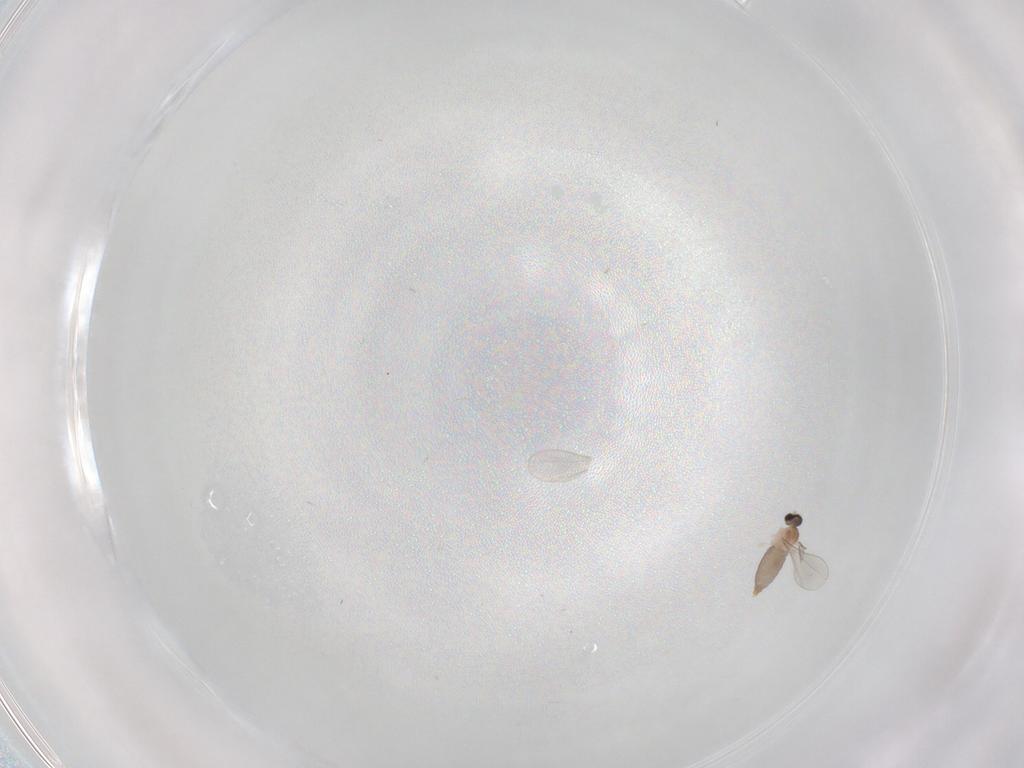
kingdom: Animalia
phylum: Arthropoda
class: Insecta
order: Diptera
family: Cecidomyiidae
